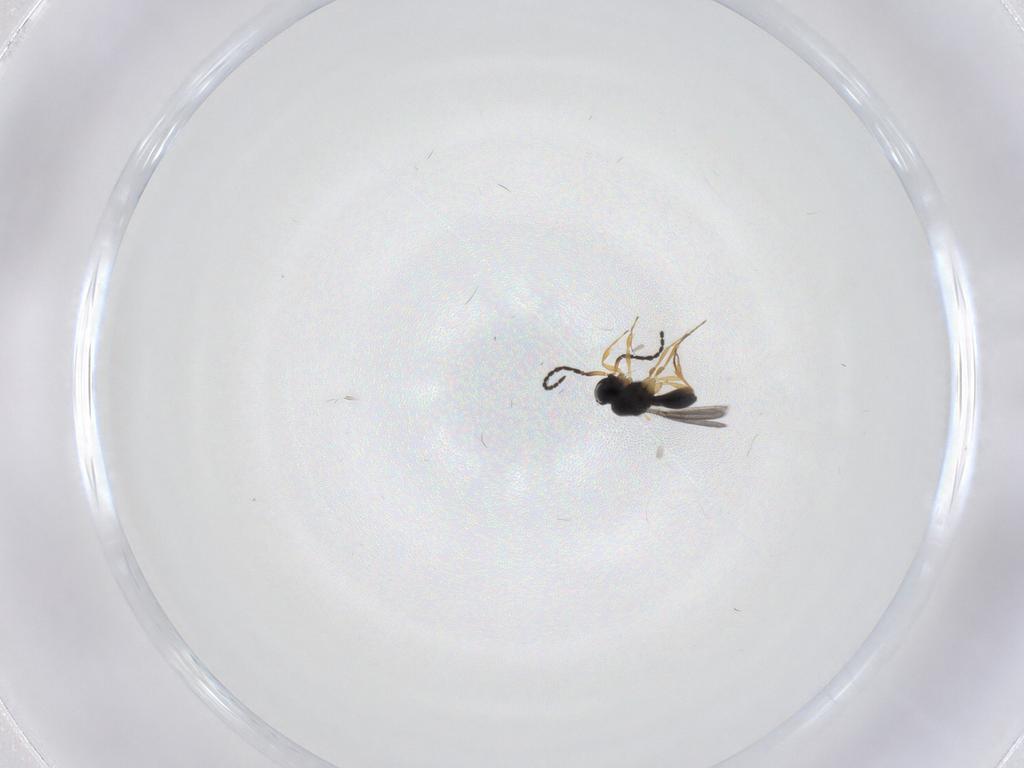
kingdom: Animalia
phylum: Arthropoda
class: Insecta
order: Hymenoptera
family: Scelionidae
